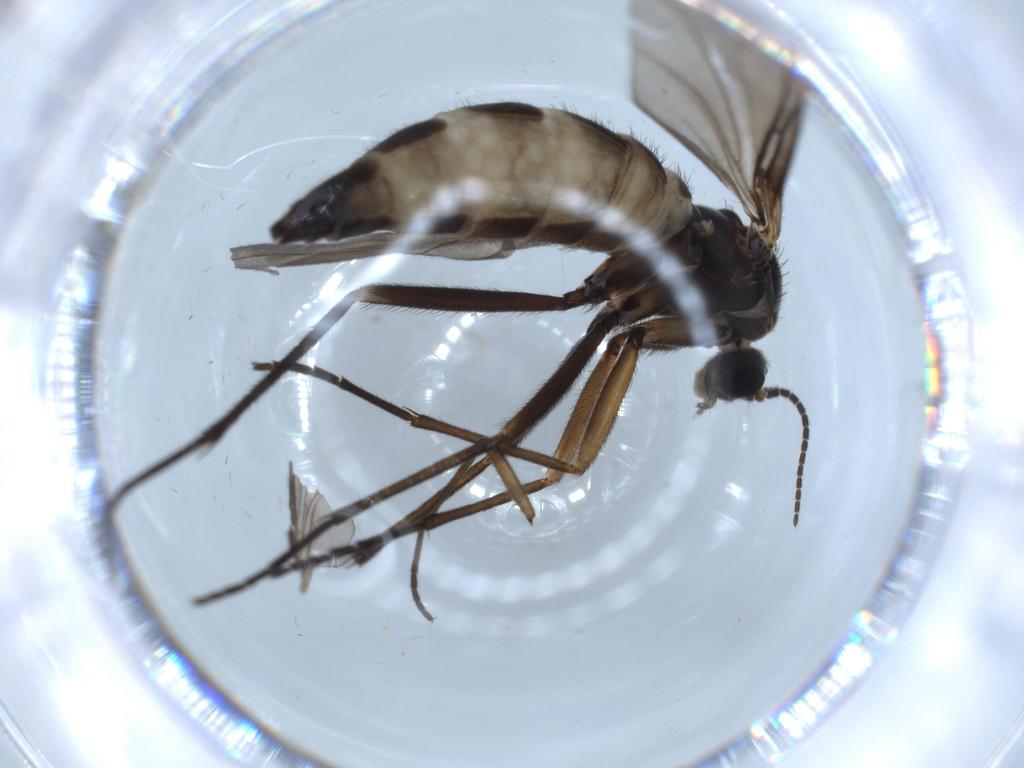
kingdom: Animalia
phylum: Arthropoda
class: Insecta
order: Diptera
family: Sciaridae
